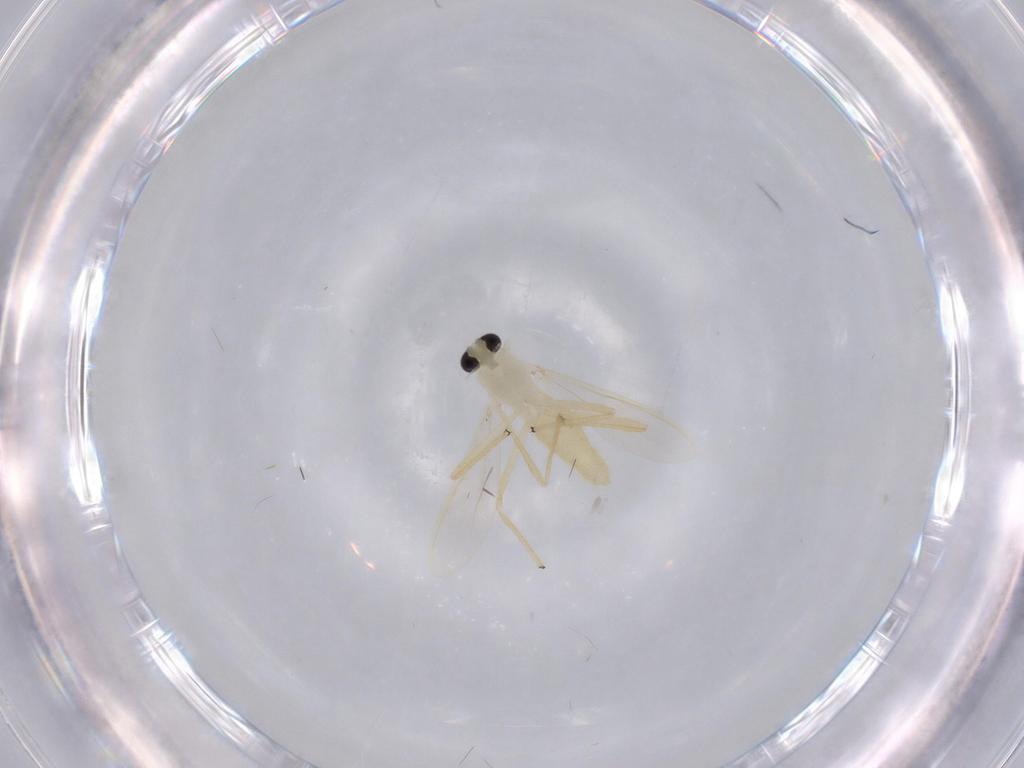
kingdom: Animalia
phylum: Arthropoda
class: Insecta
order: Diptera
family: Chironomidae
